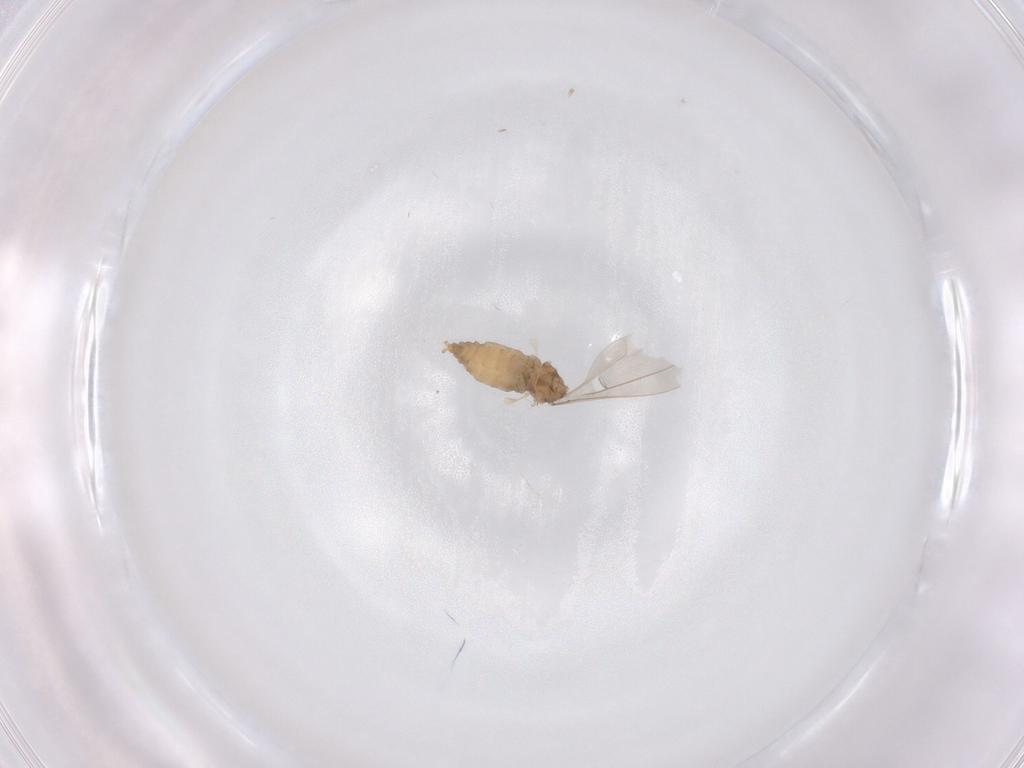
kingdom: Animalia
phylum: Arthropoda
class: Insecta
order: Diptera
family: Cecidomyiidae
